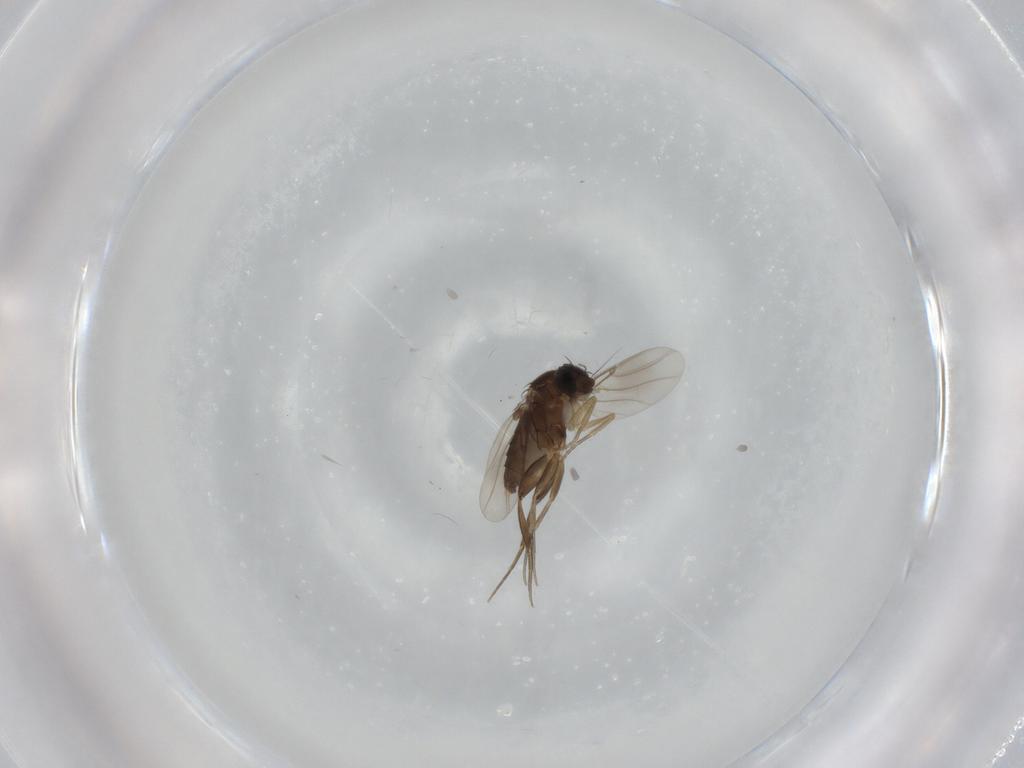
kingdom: Animalia
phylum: Arthropoda
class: Insecta
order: Diptera
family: Phoridae
